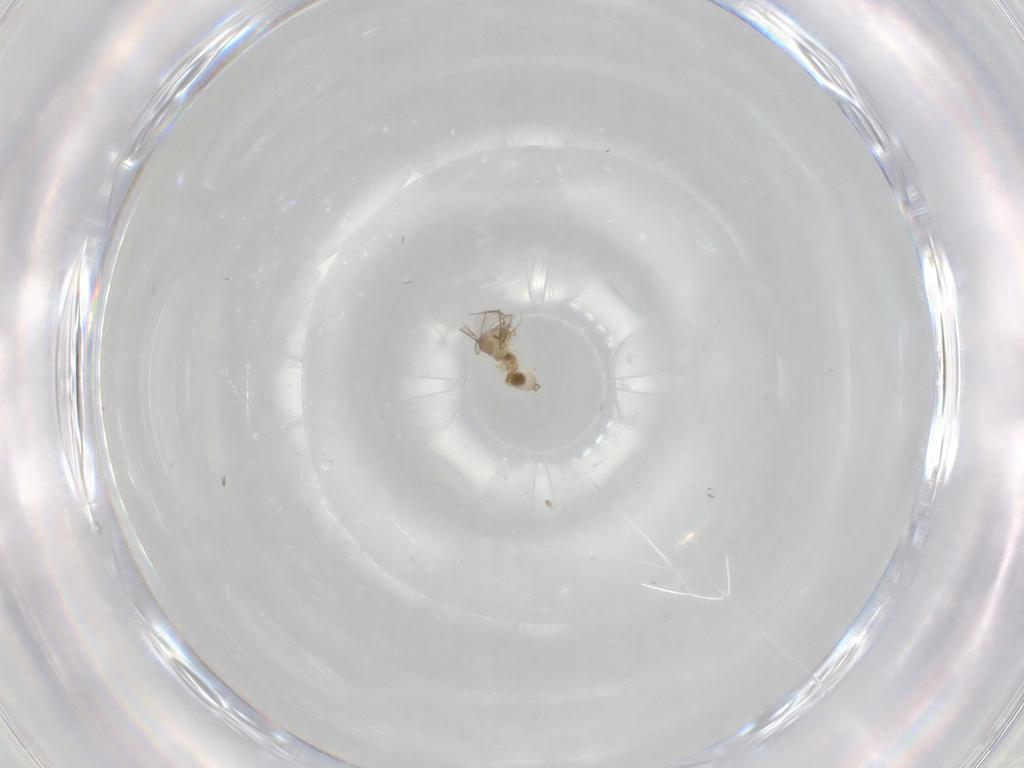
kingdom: Animalia
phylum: Arthropoda
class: Insecta
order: Diptera
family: Cecidomyiidae
